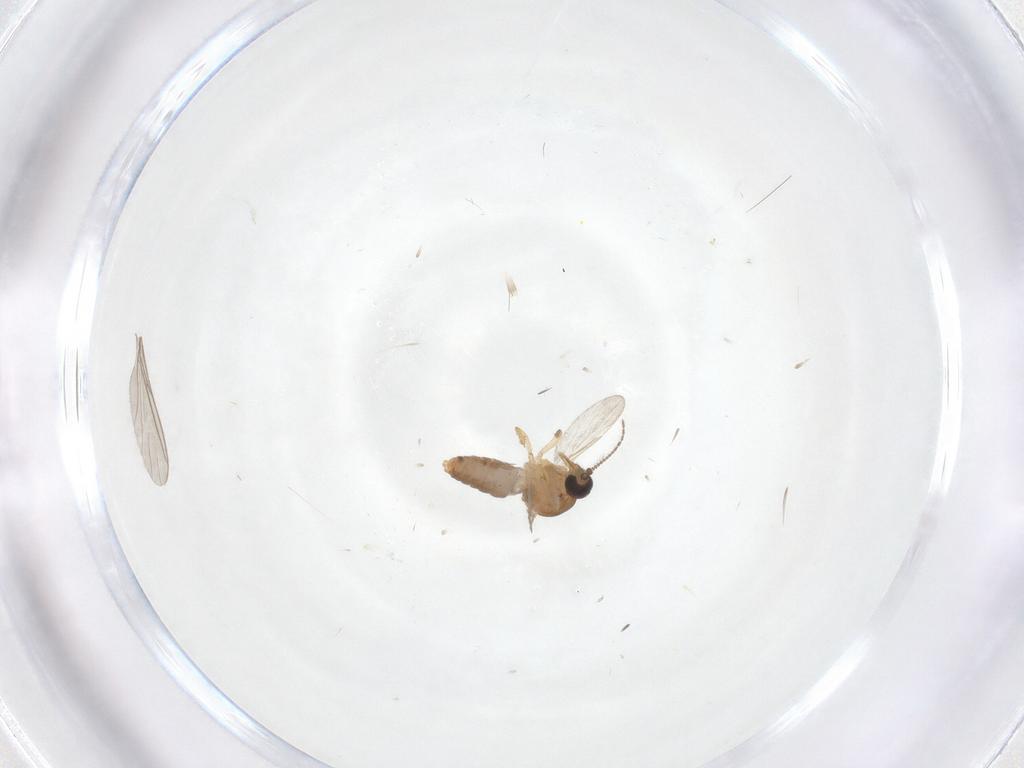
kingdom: Animalia
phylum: Arthropoda
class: Insecta
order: Diptera
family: Ceratopogonidae
